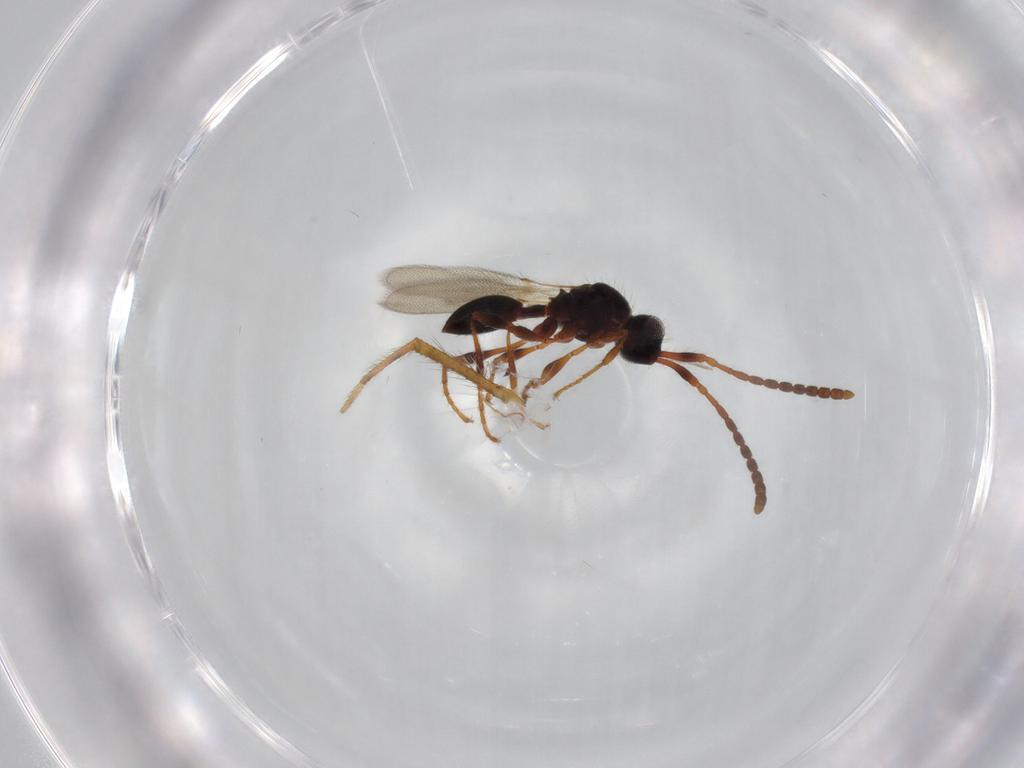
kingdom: Animalia
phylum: Arthropoda
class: Insecta
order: Hymenoptera
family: Diapriidae
